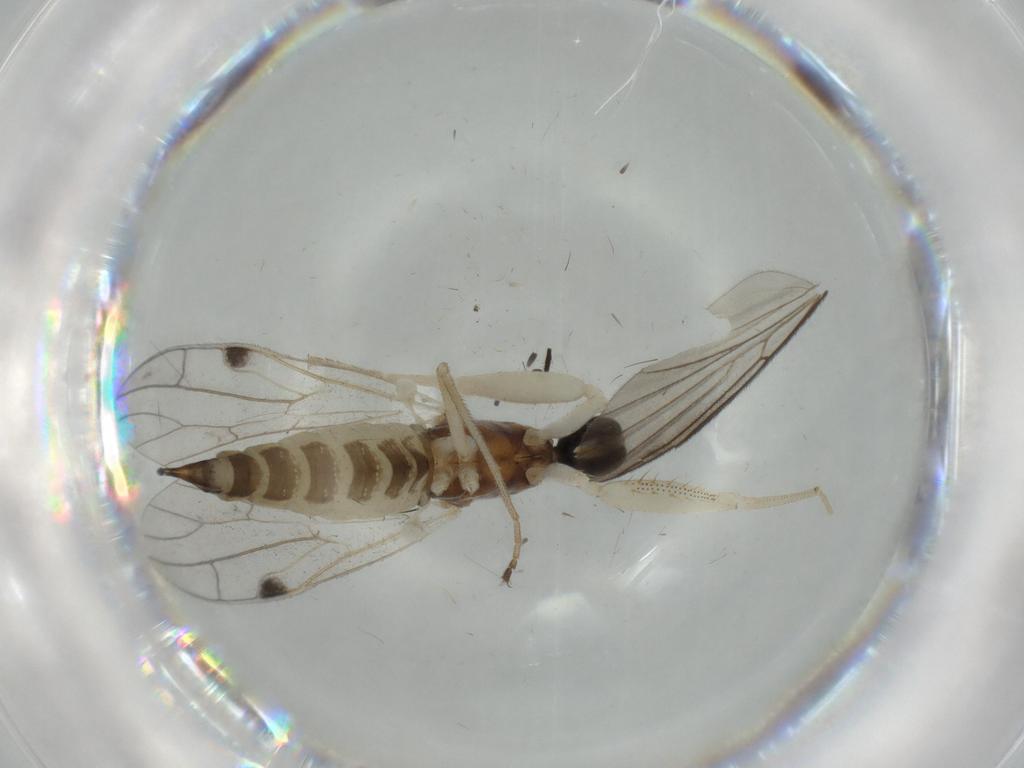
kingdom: Animalia
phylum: Arthropoda
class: Insecta
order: Diptera
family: Empididae
